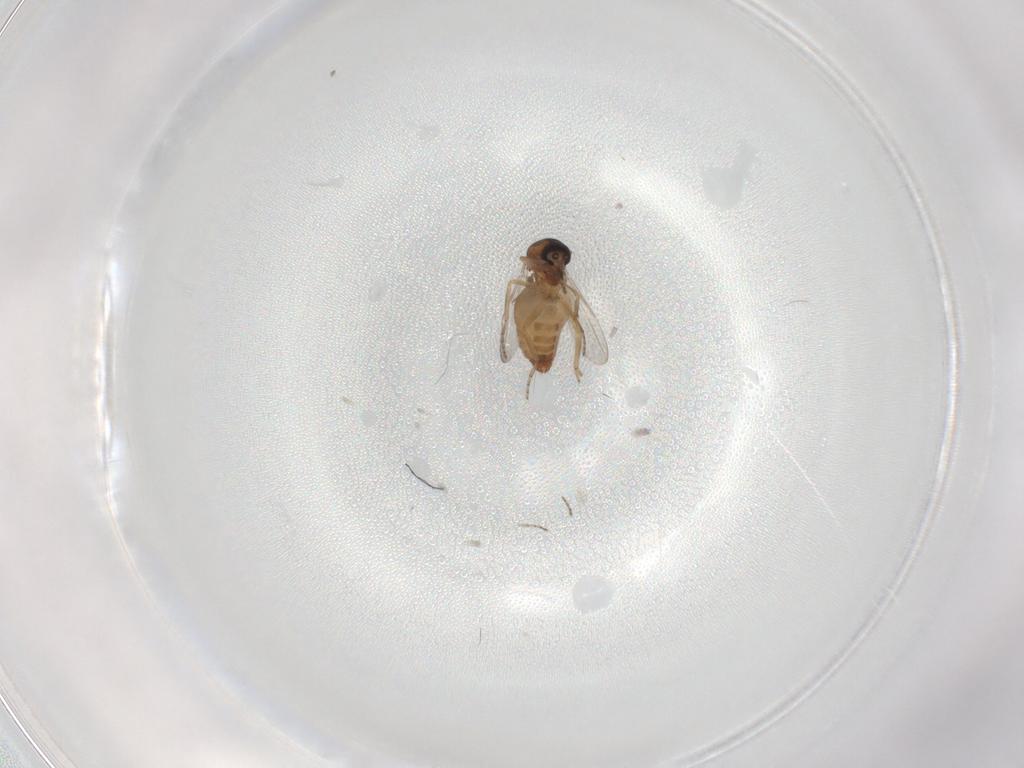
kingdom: Animalia
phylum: Arthropoda
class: Insecta
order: Diptera
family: Ceratopogonidae
